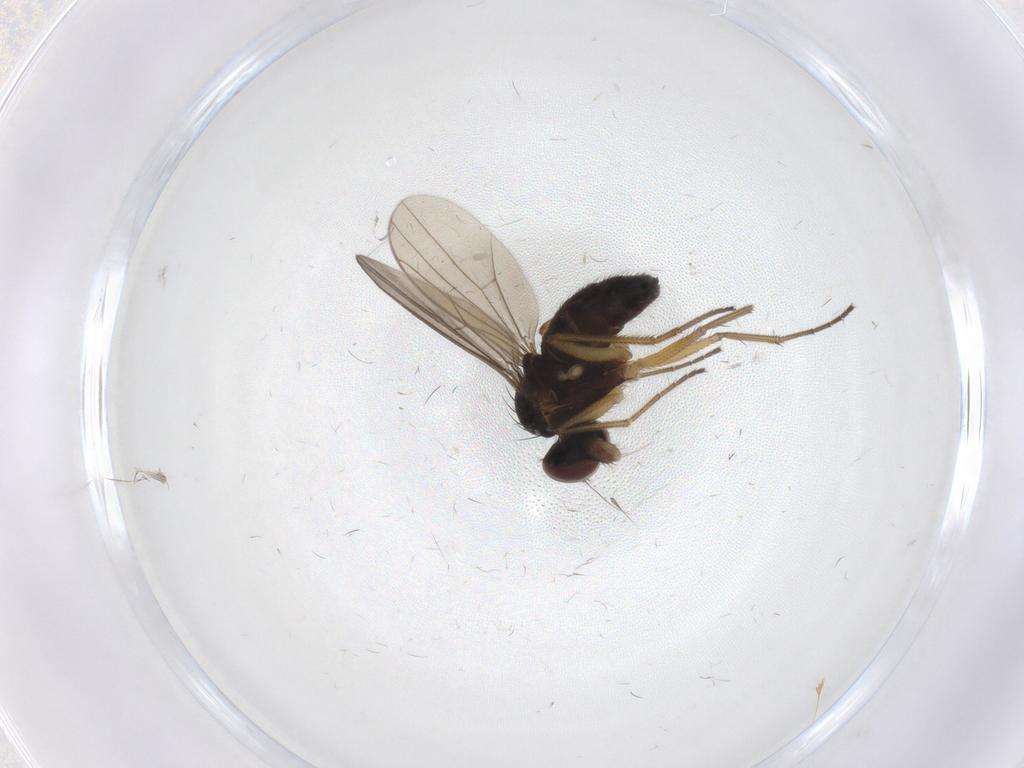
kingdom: Animalia
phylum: Arthropoda
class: Insecta
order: Diptera
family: Dolichopodidae
